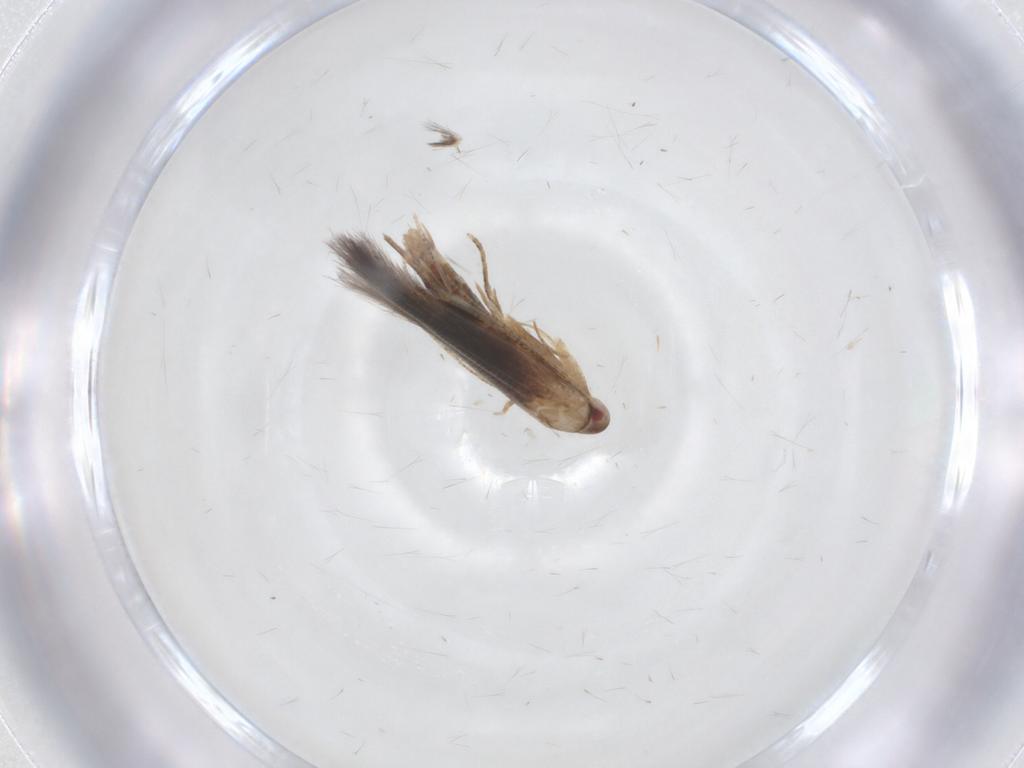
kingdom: Animalia
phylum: Arthropoda
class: Insecta
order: Lepidoptera
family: Cosmopterigidae
